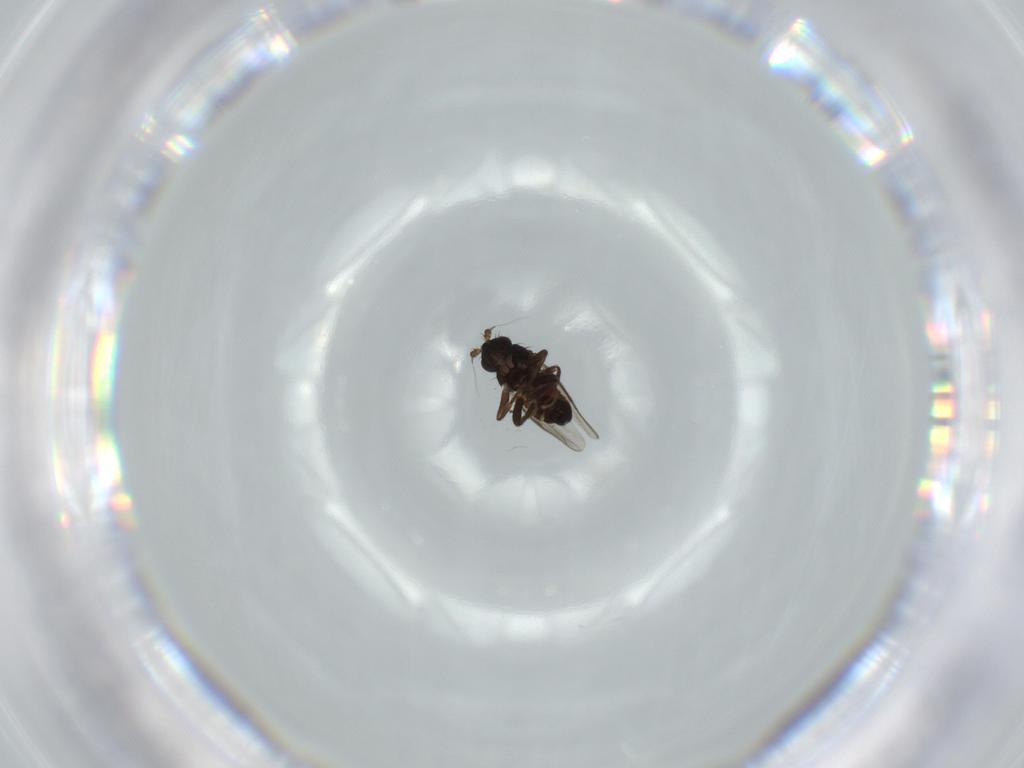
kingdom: Animalia
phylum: Arthropoda
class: Insecta
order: Diptera
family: Sphaeroceridae
